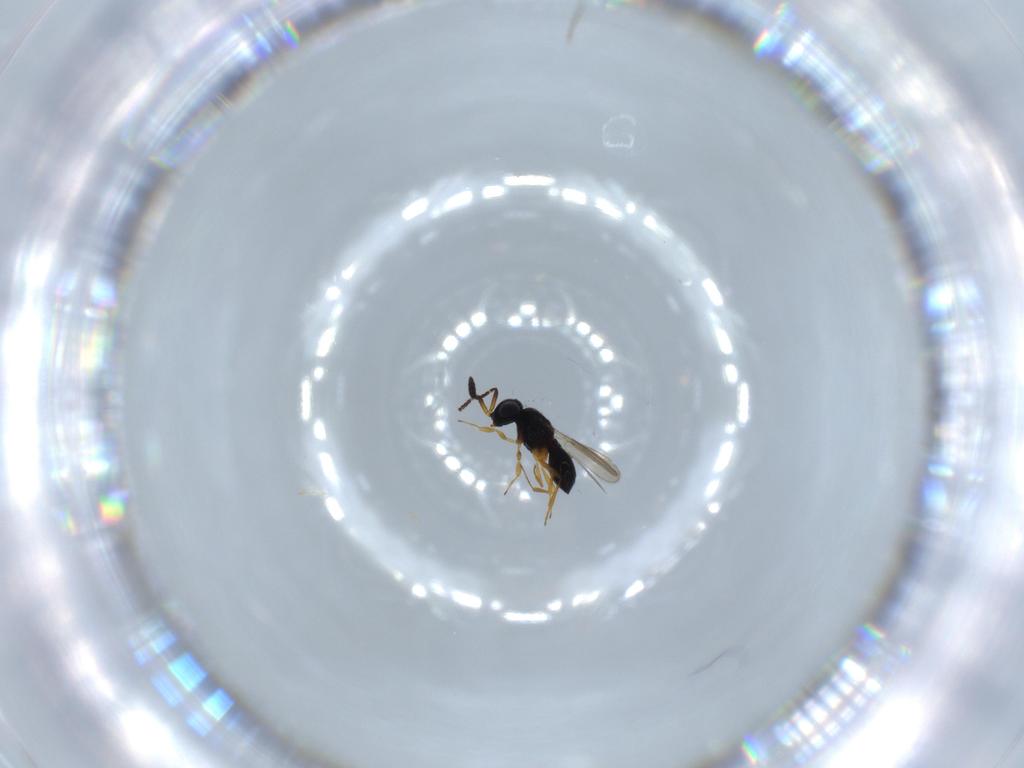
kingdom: Animalia
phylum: Arthropoda
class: Insecta
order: Hymenoptera
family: Scelionidae
